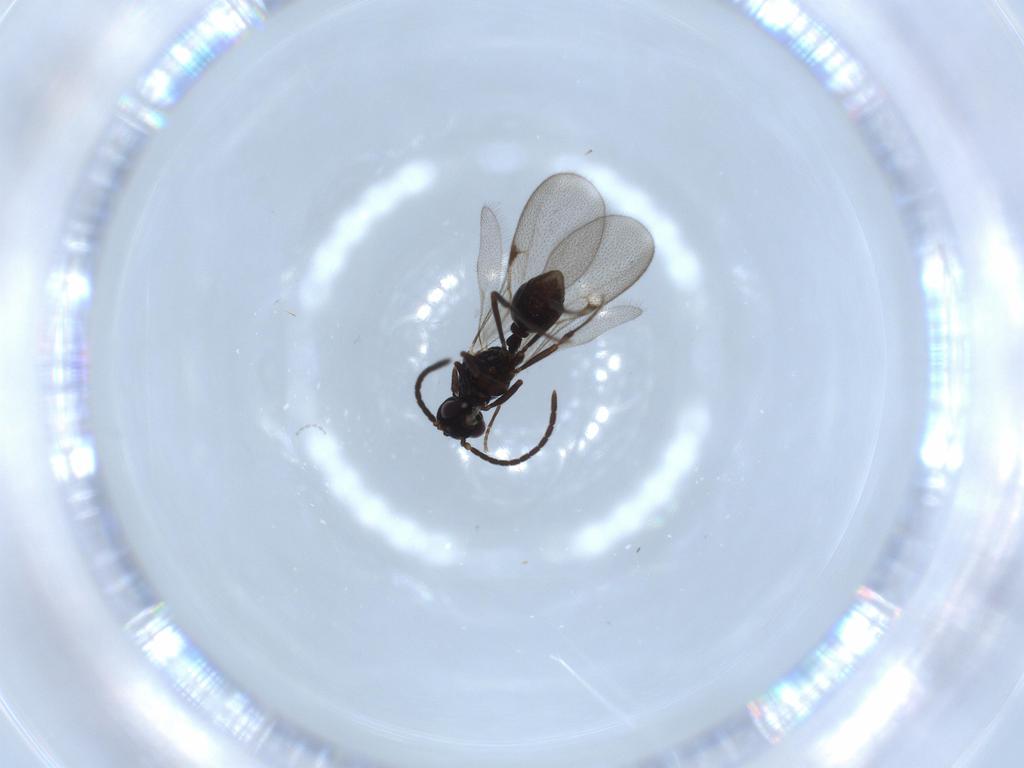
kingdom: Animalia
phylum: Arthropoda
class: Insecta
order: Hymenoptera
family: Formicidae
